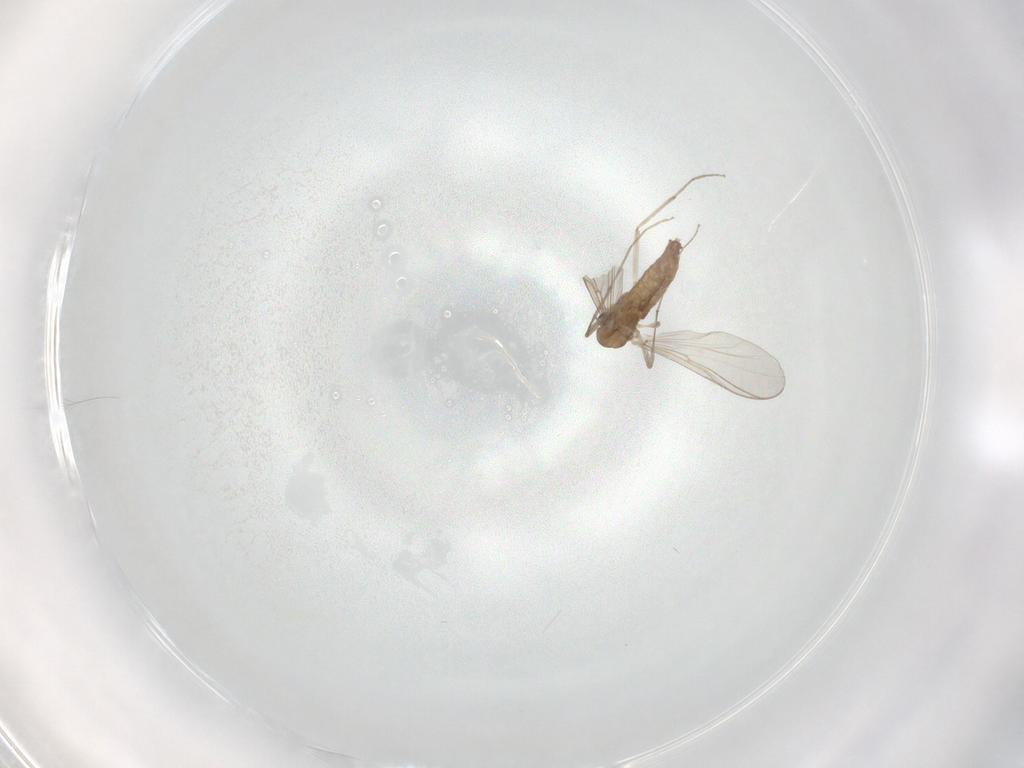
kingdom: Animalia
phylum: Arthropoda
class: Insecta
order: Diptera
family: Chironomidae
